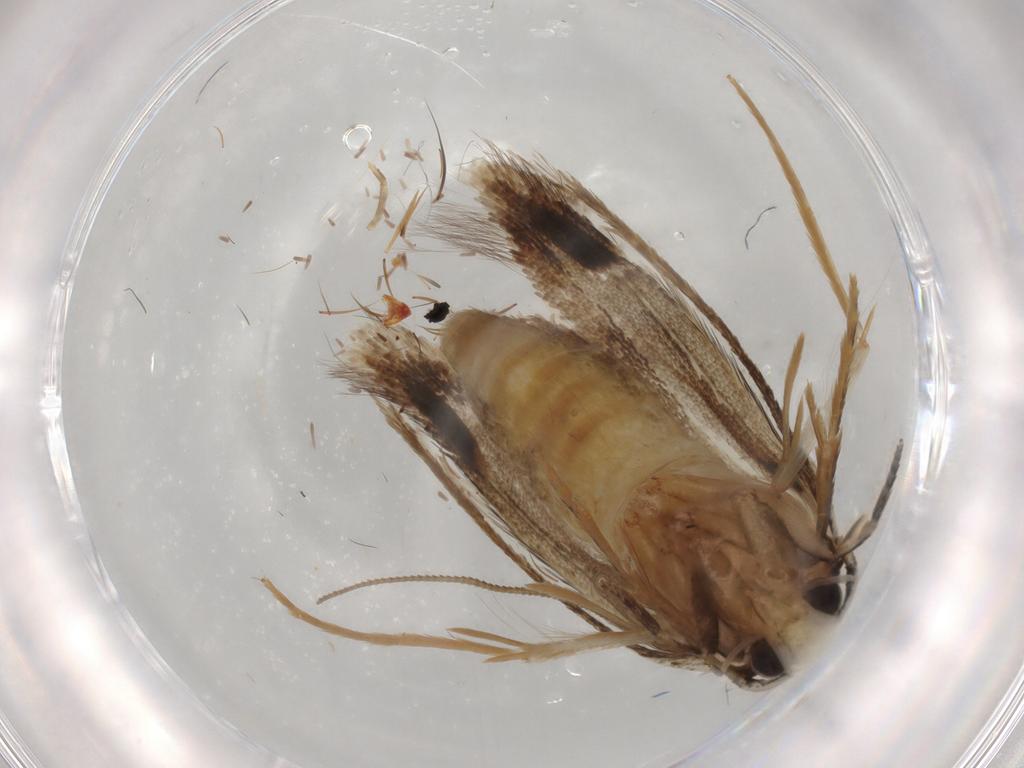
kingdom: Animalia
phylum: Arthropoda
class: Insecta
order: Lepidoptera
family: Tineidae
